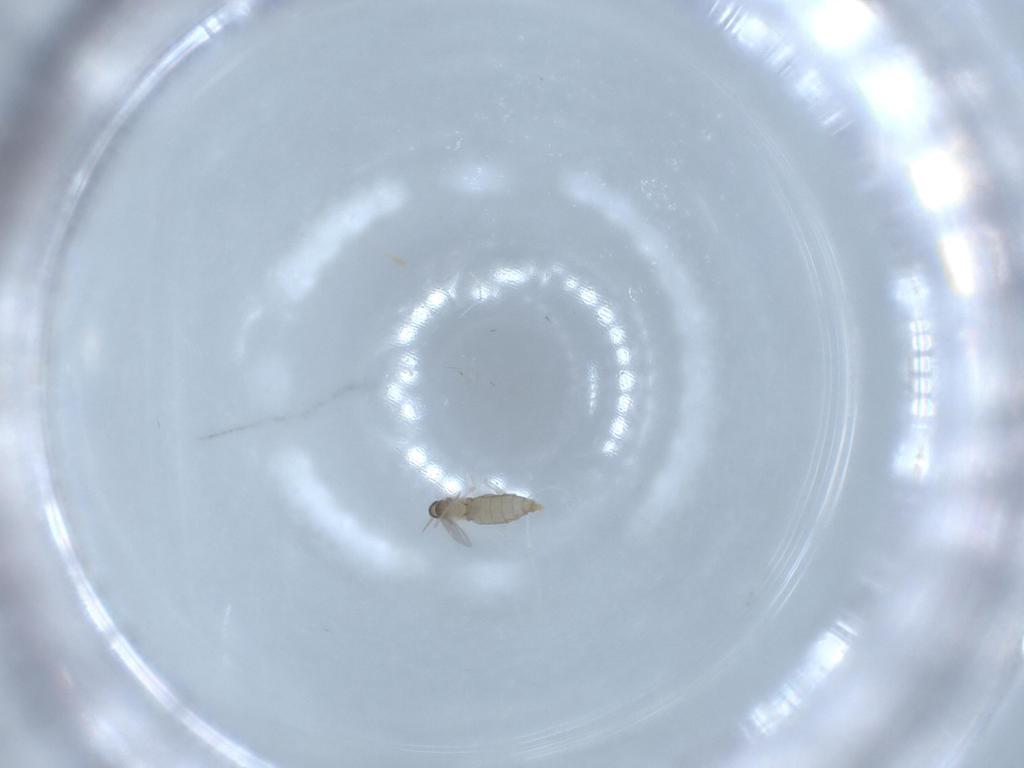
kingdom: Animalia
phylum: Arthropoda
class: Insecta
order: Diptera
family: Cecidomyiidae
